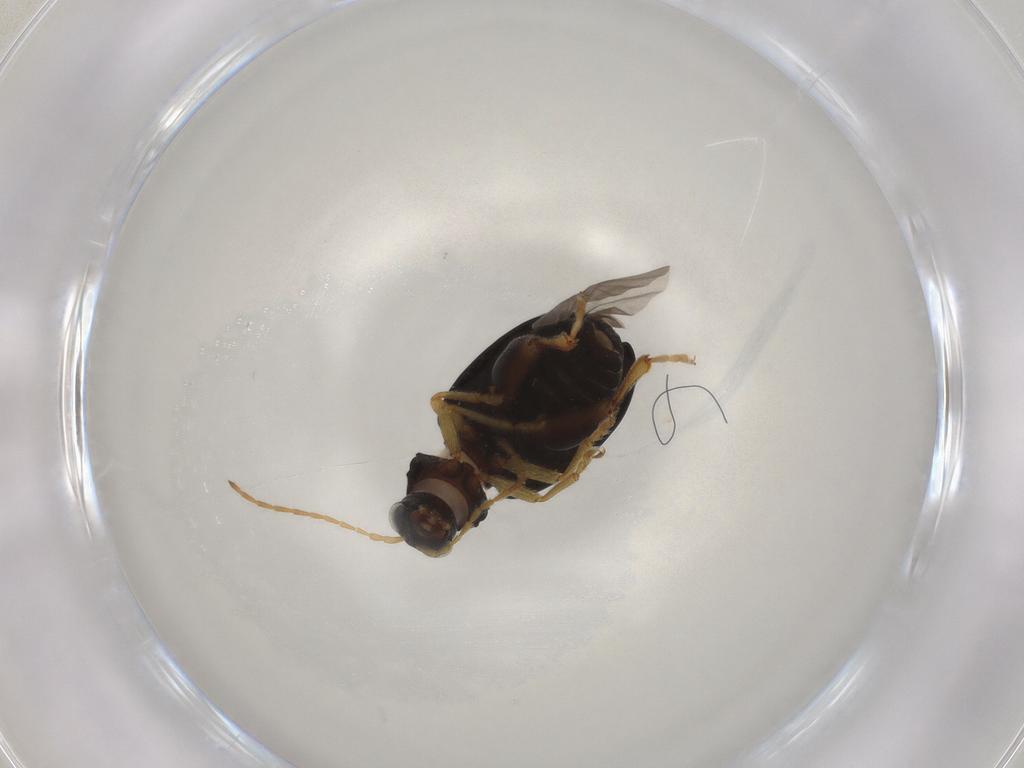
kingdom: Animalia
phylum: Arthropoda
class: Insecta
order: Coleoptera
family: Chrysomelidae
